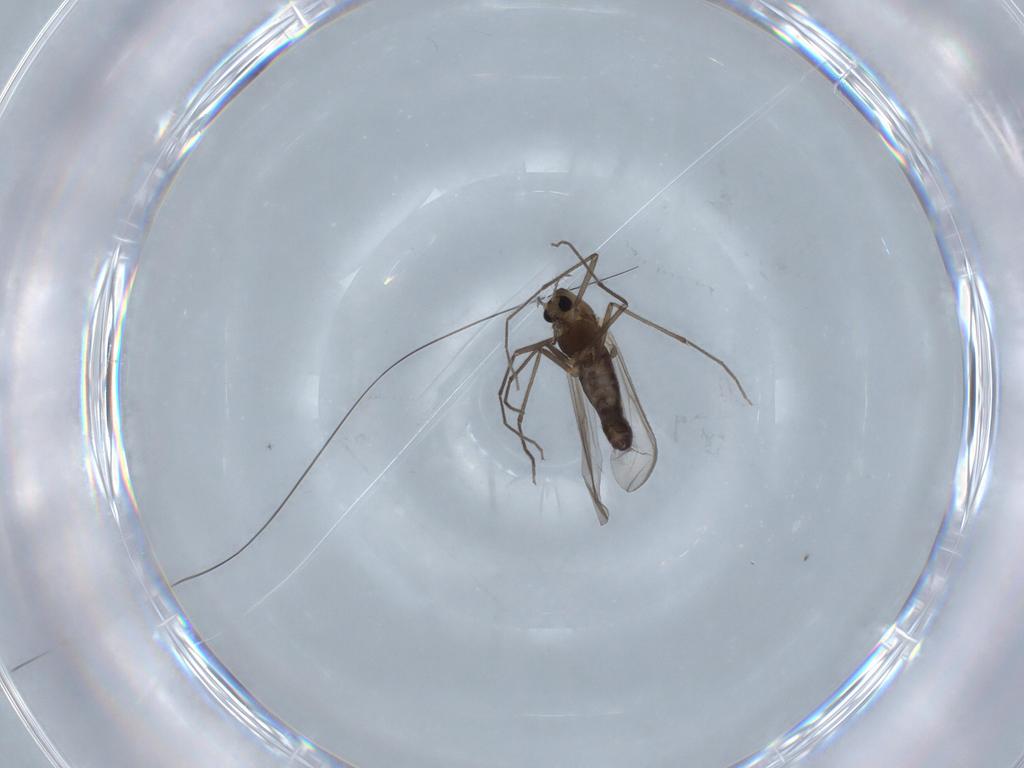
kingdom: Animalia
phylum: Arthropoda
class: Insecta
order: Diptera
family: Chironomidae
